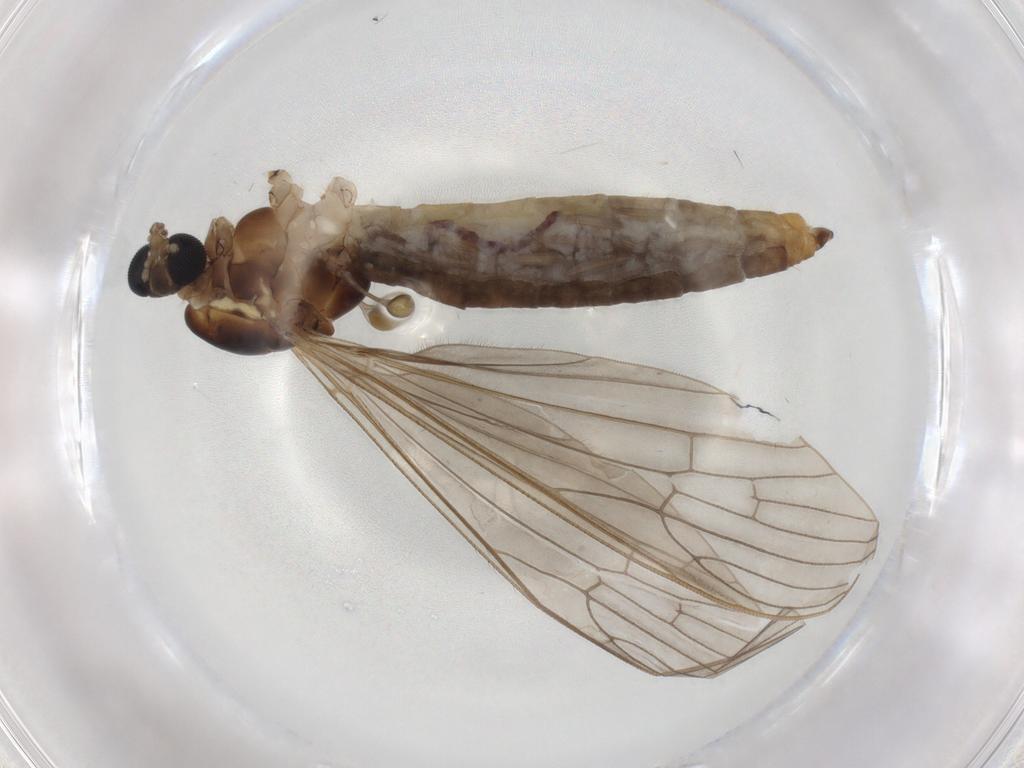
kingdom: Animalia
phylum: Arthropoda
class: Insecta
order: Diptera
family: Limoniidae
